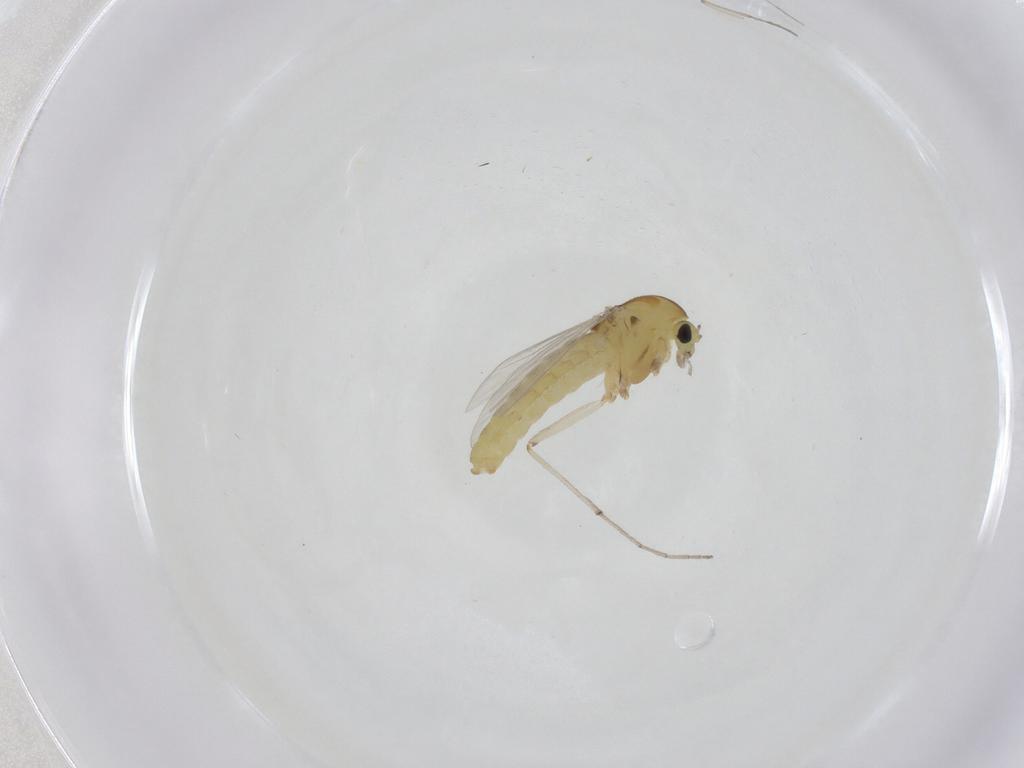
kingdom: Animalia
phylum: Arthropoda
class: Insecta
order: Diptera
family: Chironomidae
